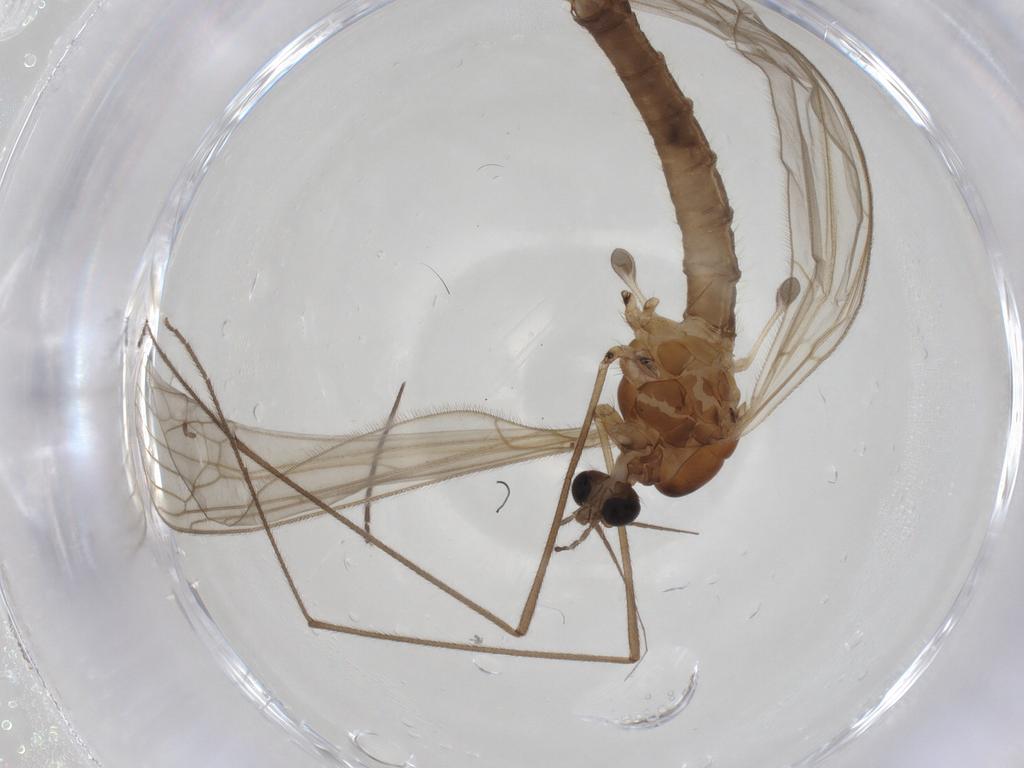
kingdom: Animalia
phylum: Arthropoda
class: Insecta
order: Diptera
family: Trichoceridae
